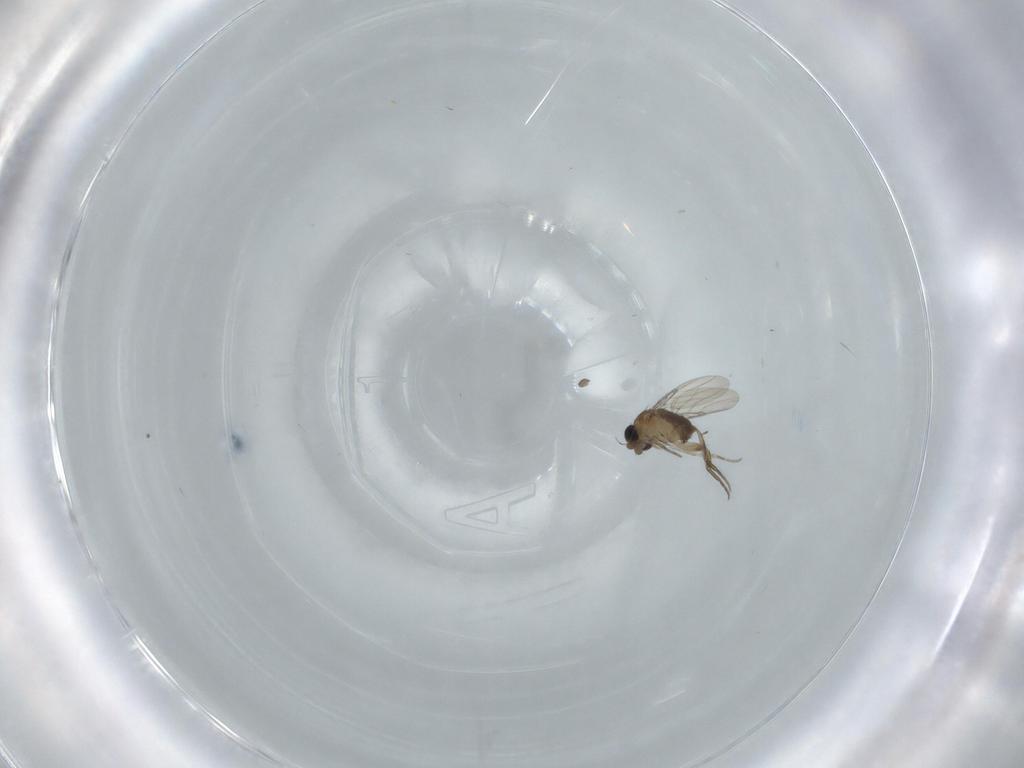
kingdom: Animalia
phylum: Arthropoda
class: Insecta
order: Diptera
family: Phoridae
